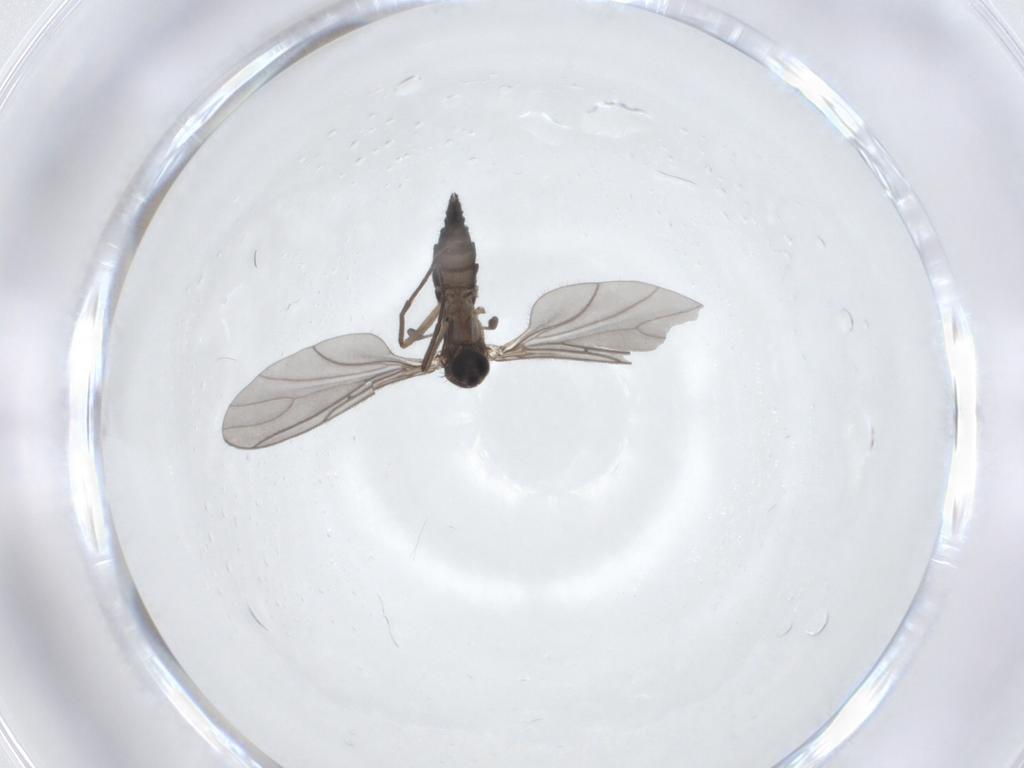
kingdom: Animalia
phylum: Arthropoda
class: Insecta
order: Diptera
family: Sciaridae
